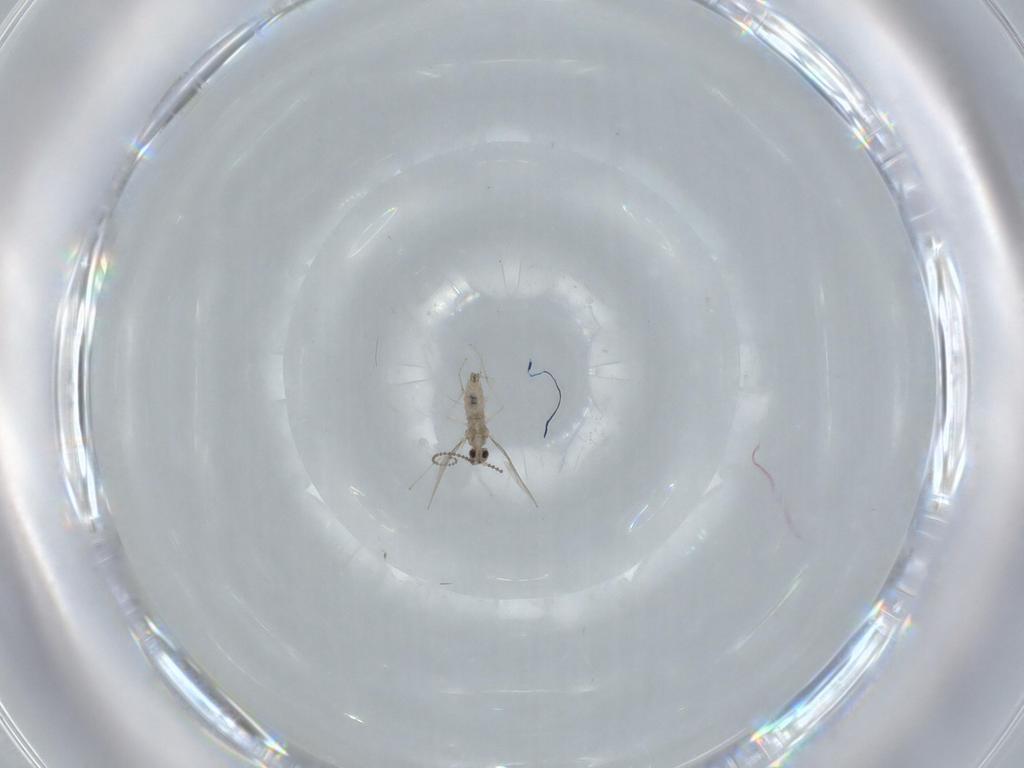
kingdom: Animalia
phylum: Arthropoda
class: Insecta
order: Diptera
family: Cecidomyiidae
